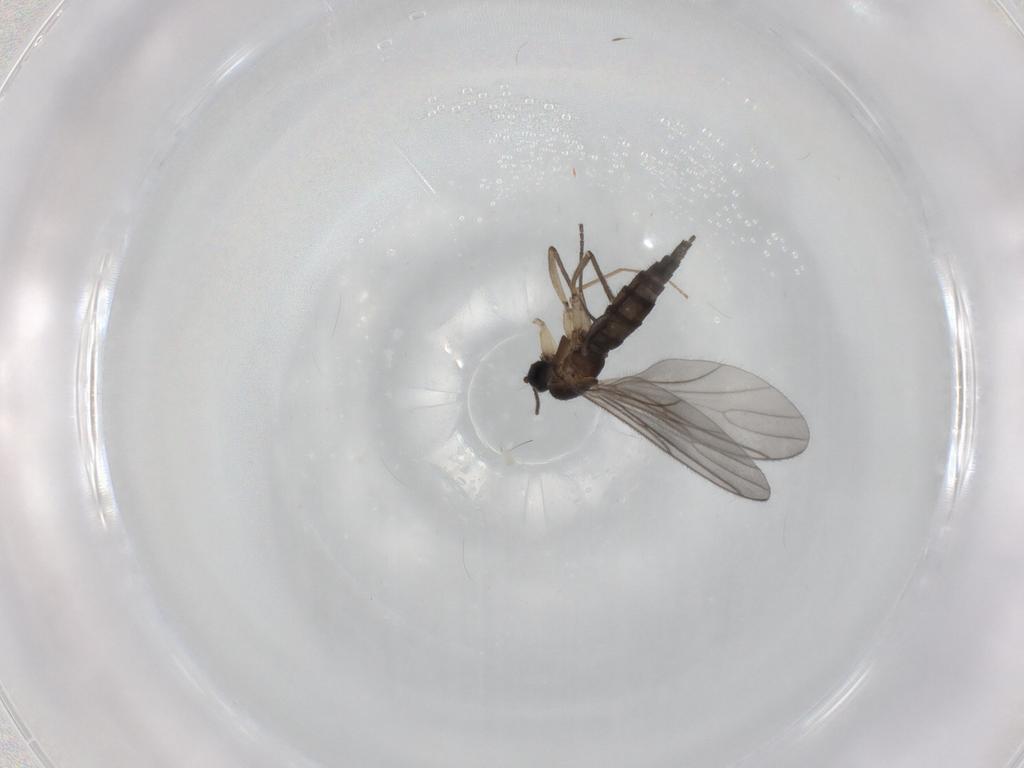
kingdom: Animalia
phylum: Arthropoda
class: Insecta
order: Diptera
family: Sciaridae
